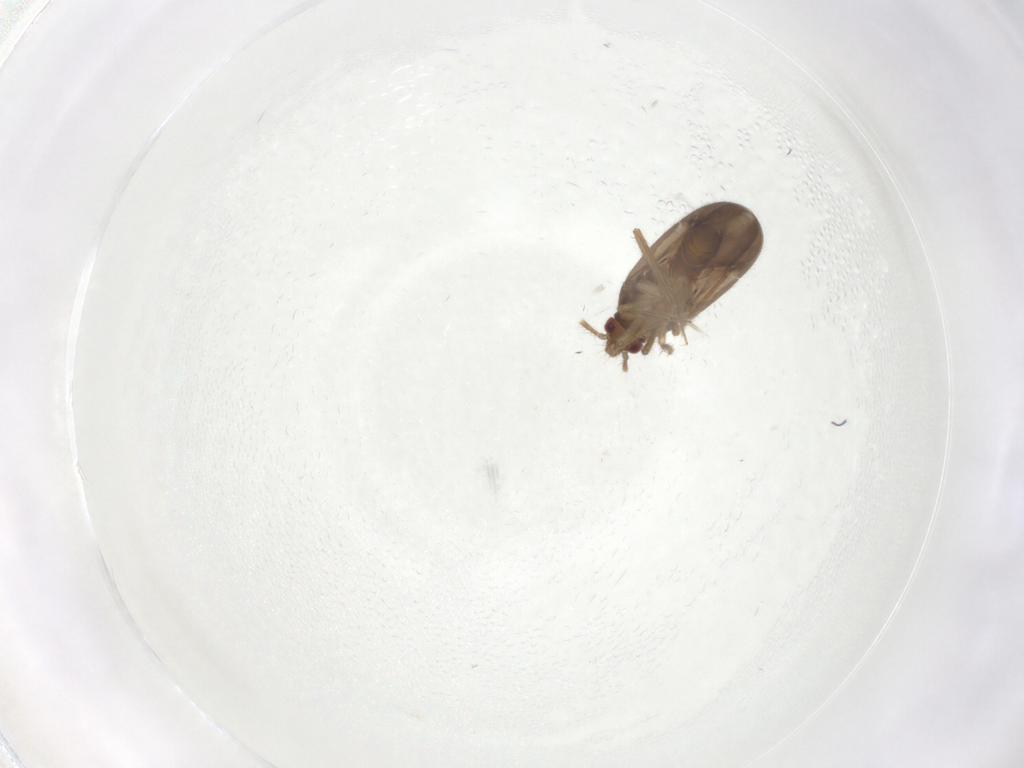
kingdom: Animalia
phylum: Arthropoda
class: Insecta
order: Hemiptera
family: Ceratocombidae
